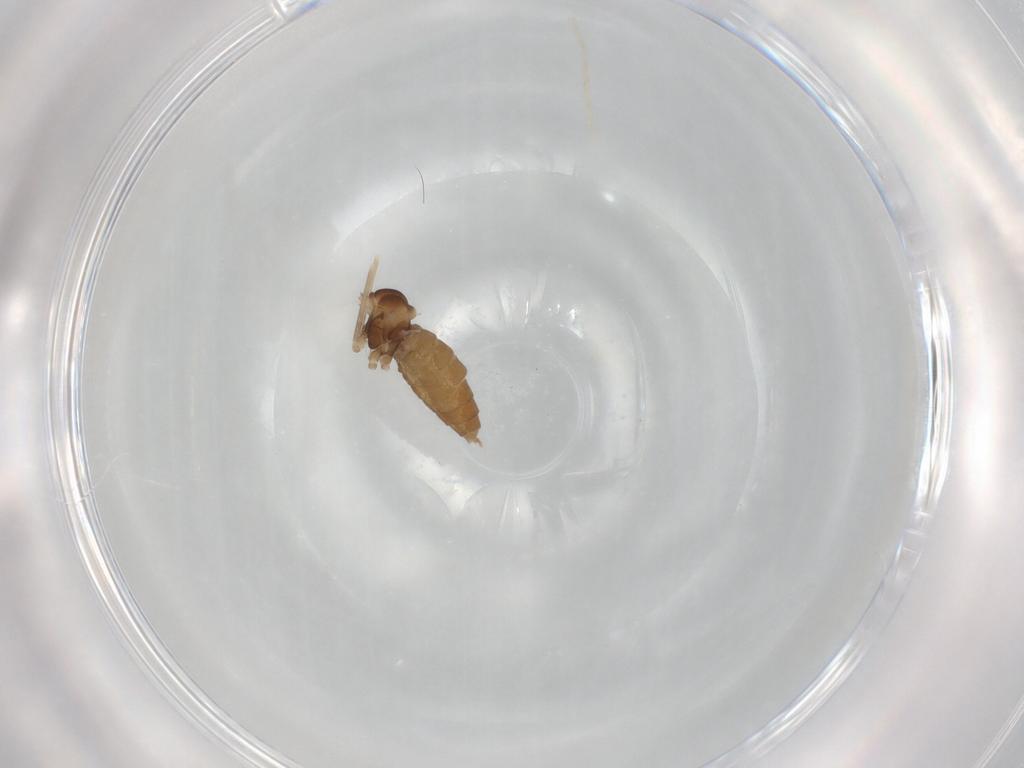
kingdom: Animalia
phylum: Arthropoda
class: Insecta
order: Diptera
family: Cecidomyiidae
